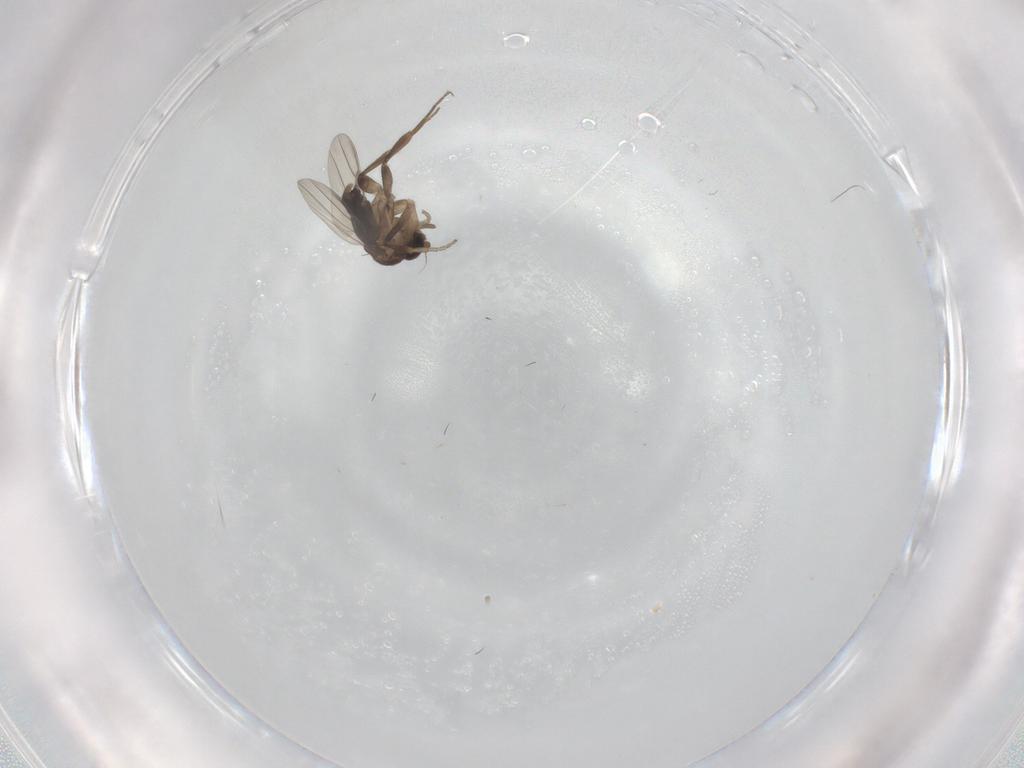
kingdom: Animalia
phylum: Arthropoda
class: Insecta
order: Diptera
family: Phoridae
